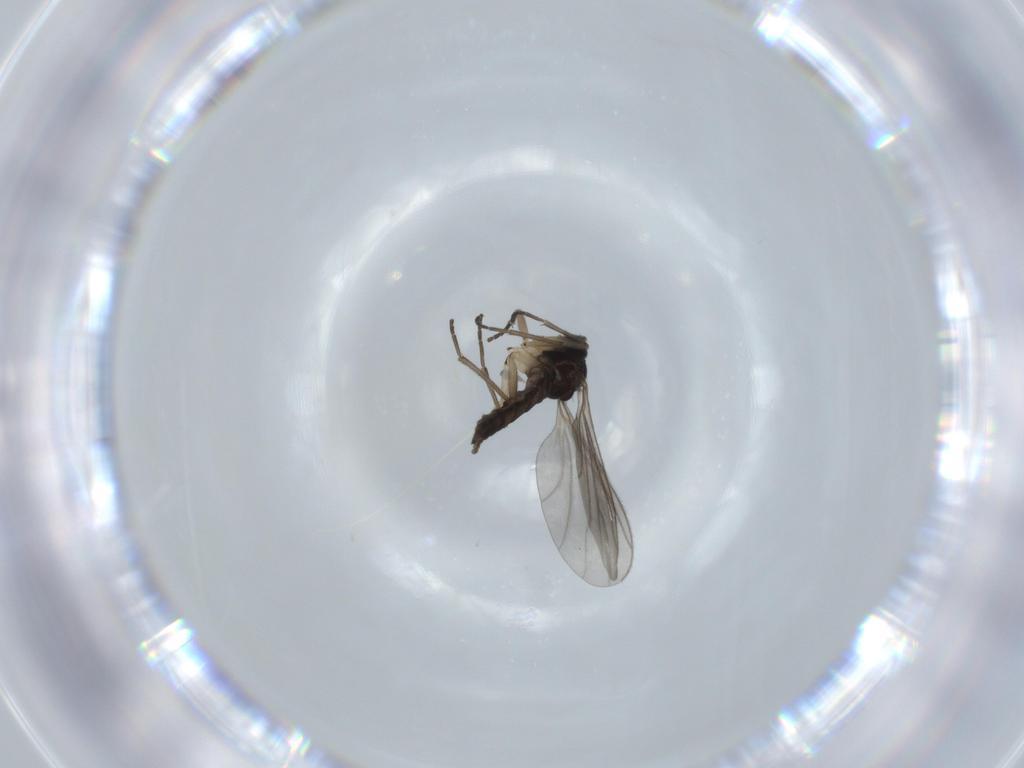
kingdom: Animalia
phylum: Arthropoda
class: Insecta
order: Diptera
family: Sciaridae
